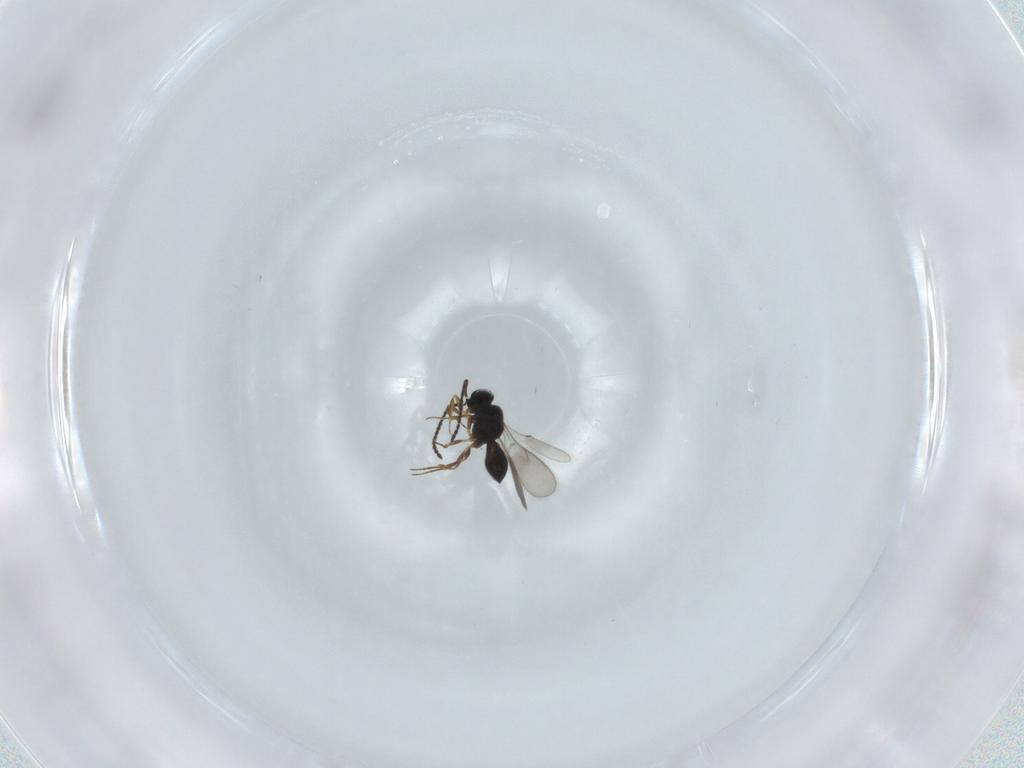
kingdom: Animalia
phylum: Arthropoda
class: Insecta
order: Hymenoptera
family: Scelionidae
